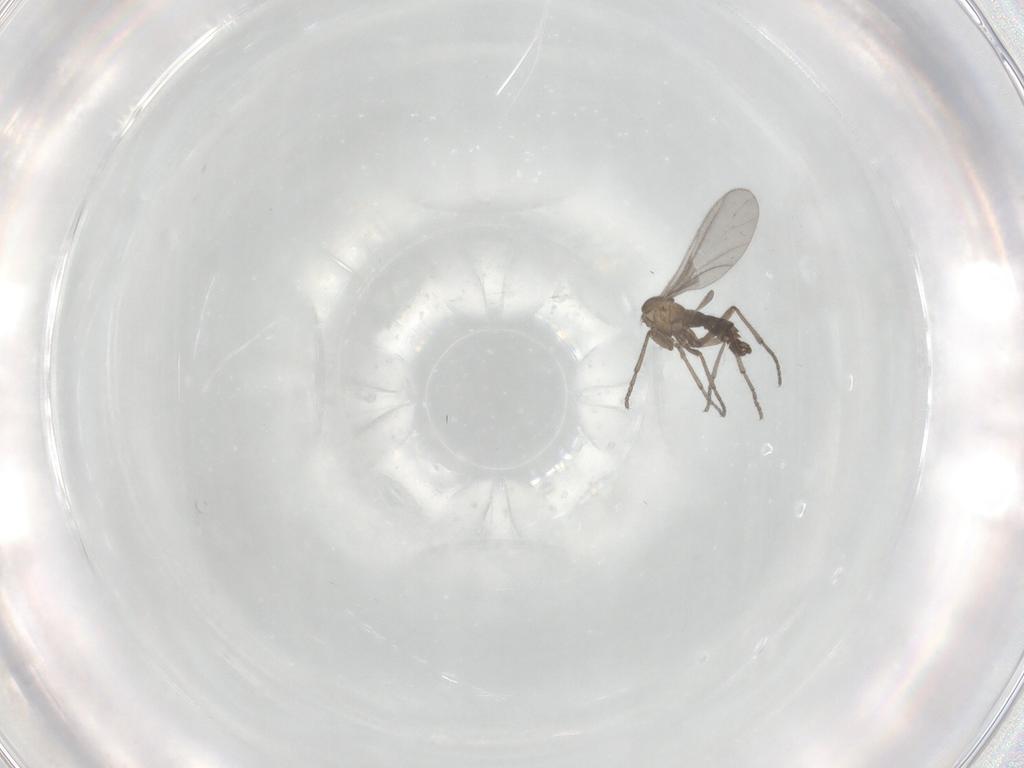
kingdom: Animalia
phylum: Arthropoda
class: Insecta
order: Diptera
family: Sciaridae
